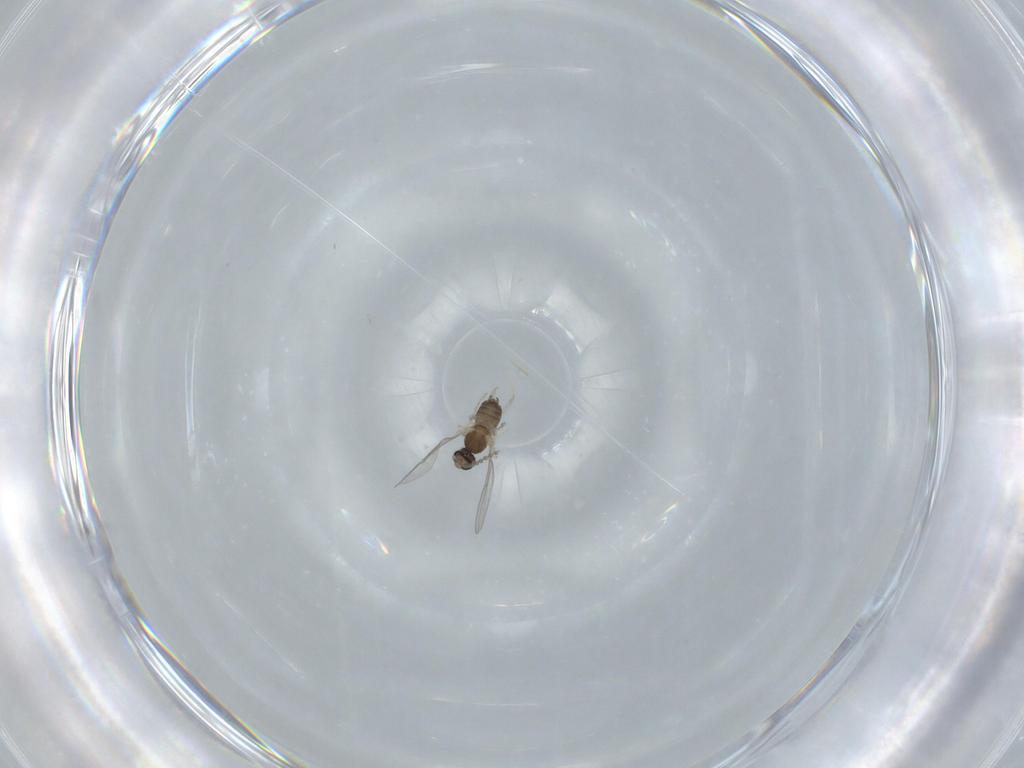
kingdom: Animalia
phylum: Arthropoda
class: Insecta
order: Diptera
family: Cecidomyiidae
